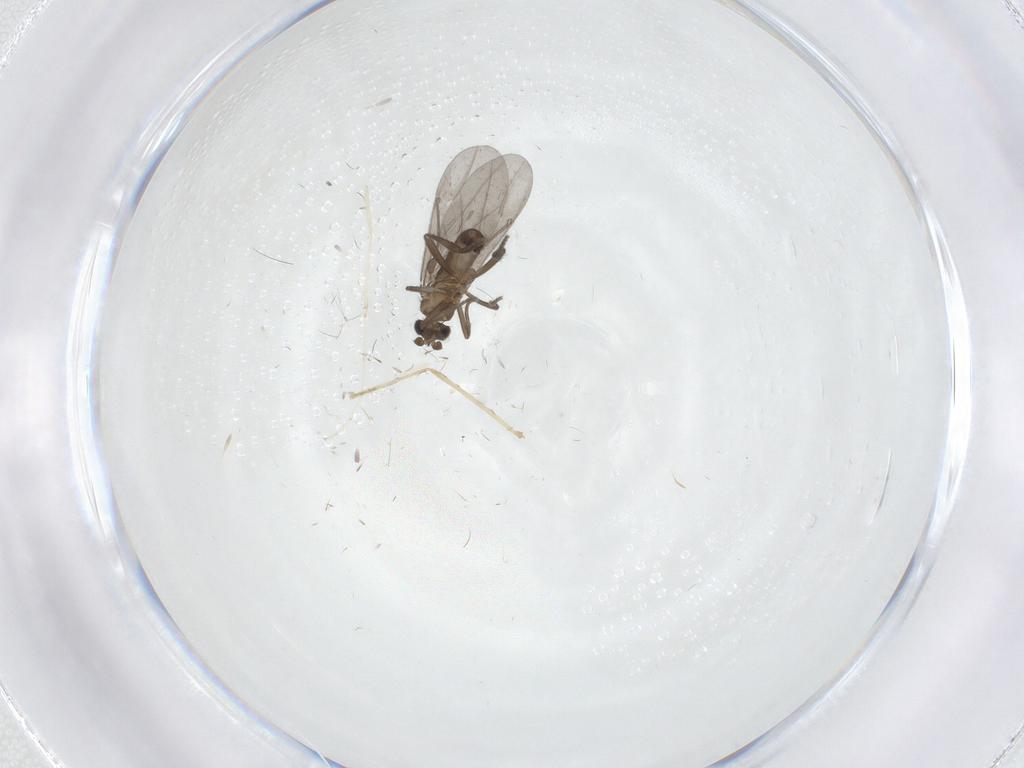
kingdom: Animalia
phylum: Arthropoda
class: Insecta
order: Diptera
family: Phoridae
